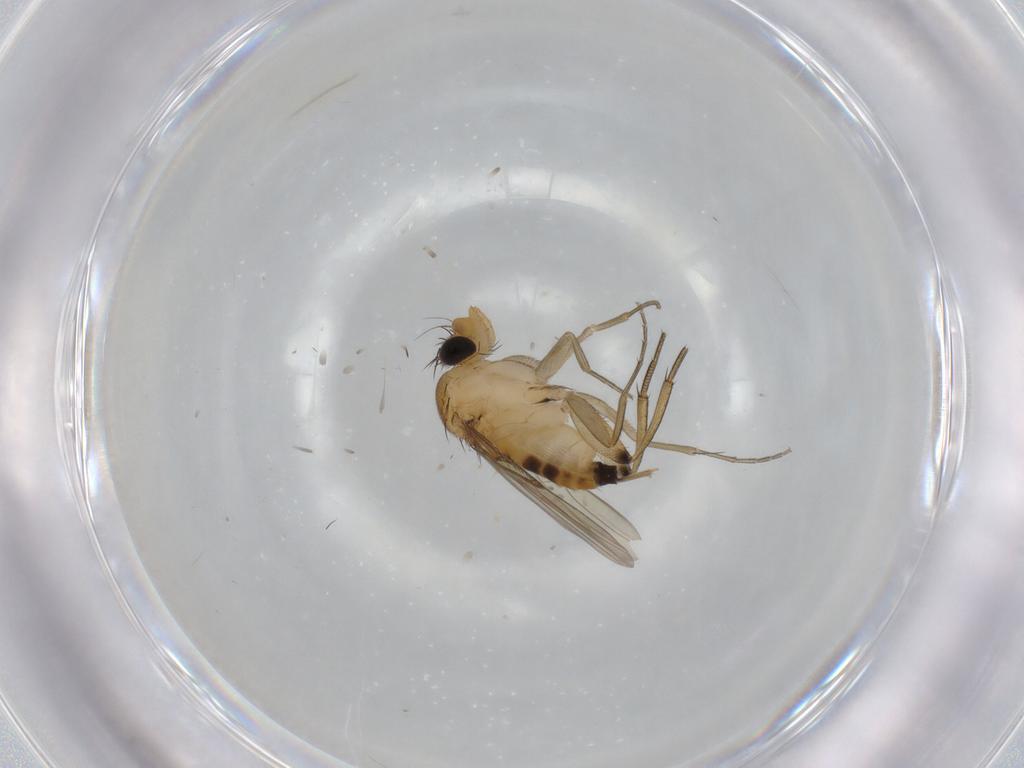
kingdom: Animalia
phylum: Arthropoda
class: Insecta
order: Diptera
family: Phoridae
